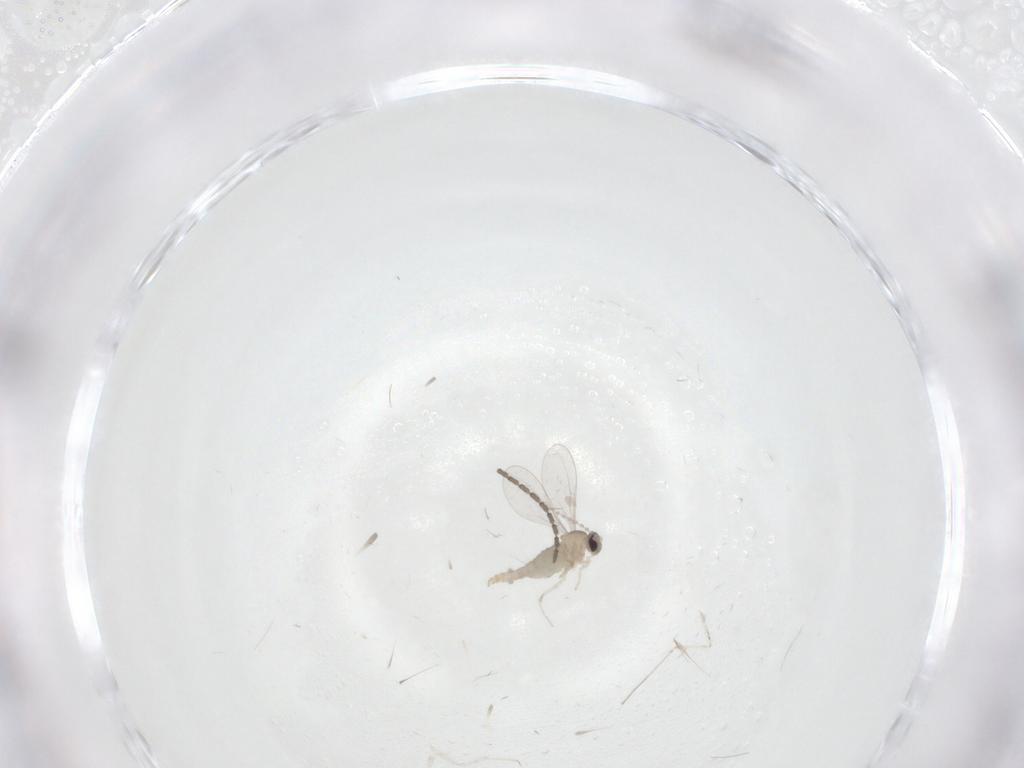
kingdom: Animalia
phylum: Arthropoda
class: Insecta
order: Diptera
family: Cecidomyiidae
